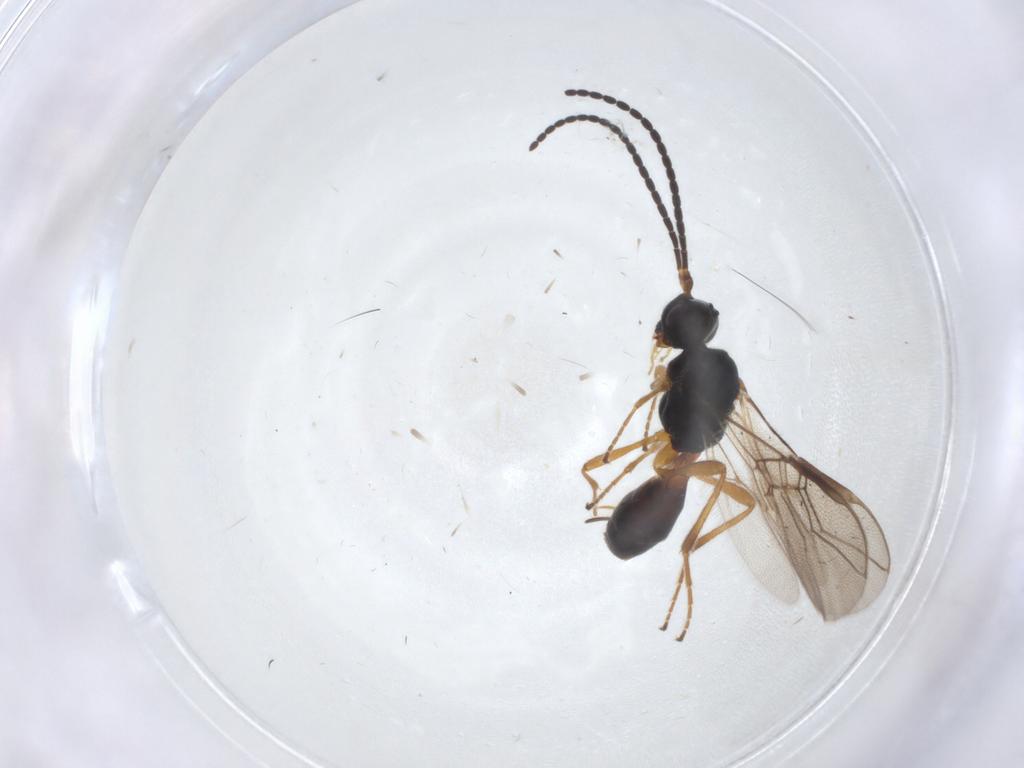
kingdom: Animalia
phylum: Arthropoda
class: Insecta
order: Hymenoptera
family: Braconidae
